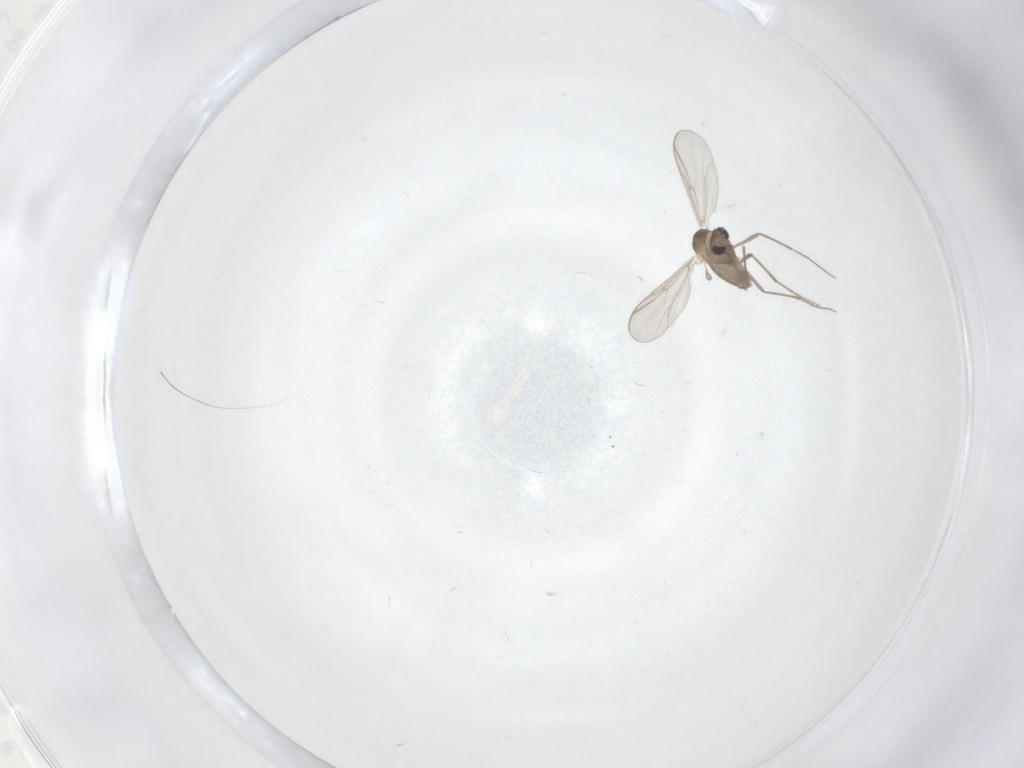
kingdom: Animalia
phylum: Arthropoda
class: Insecta
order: Diptera
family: Chironomidae
